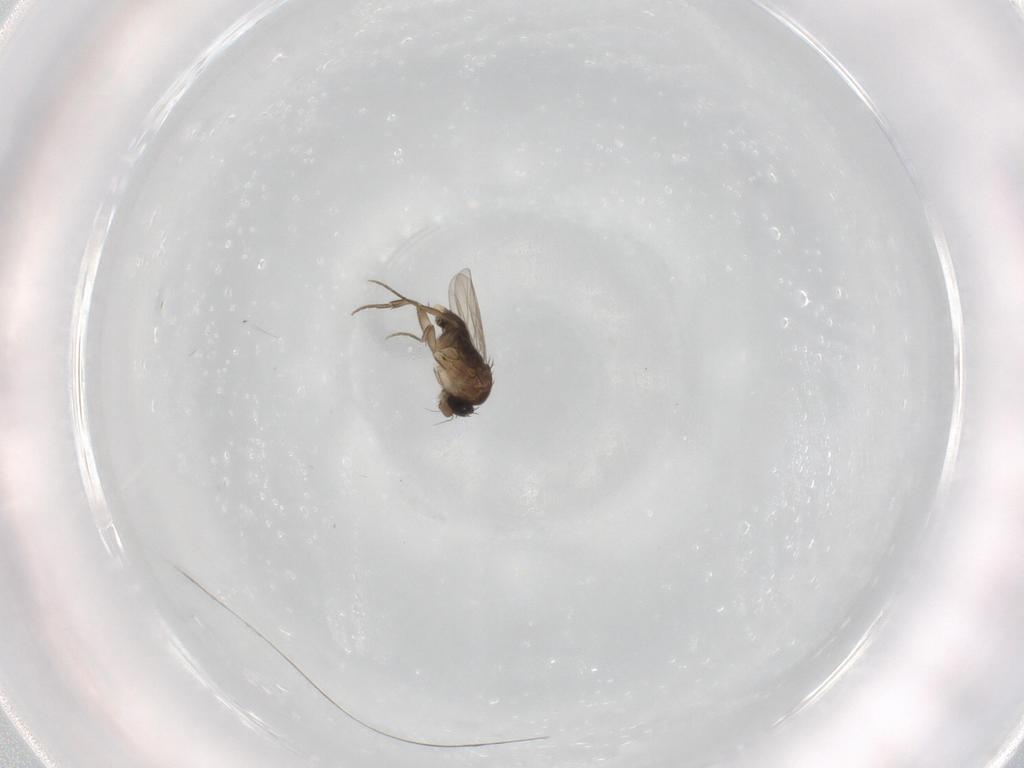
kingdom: Animalia
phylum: Arthropoda
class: Insecta
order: Diptera
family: Phoridae
